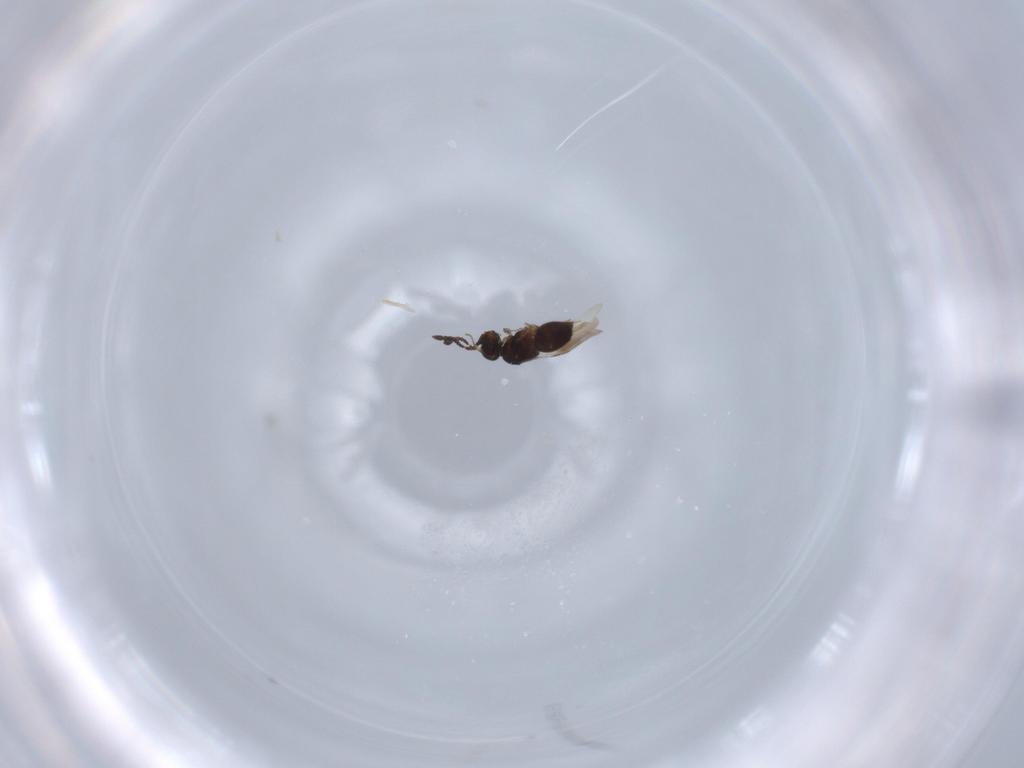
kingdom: Animalia
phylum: Arthropoda
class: Insecta
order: Hymenoptera
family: Ceraphronidae
